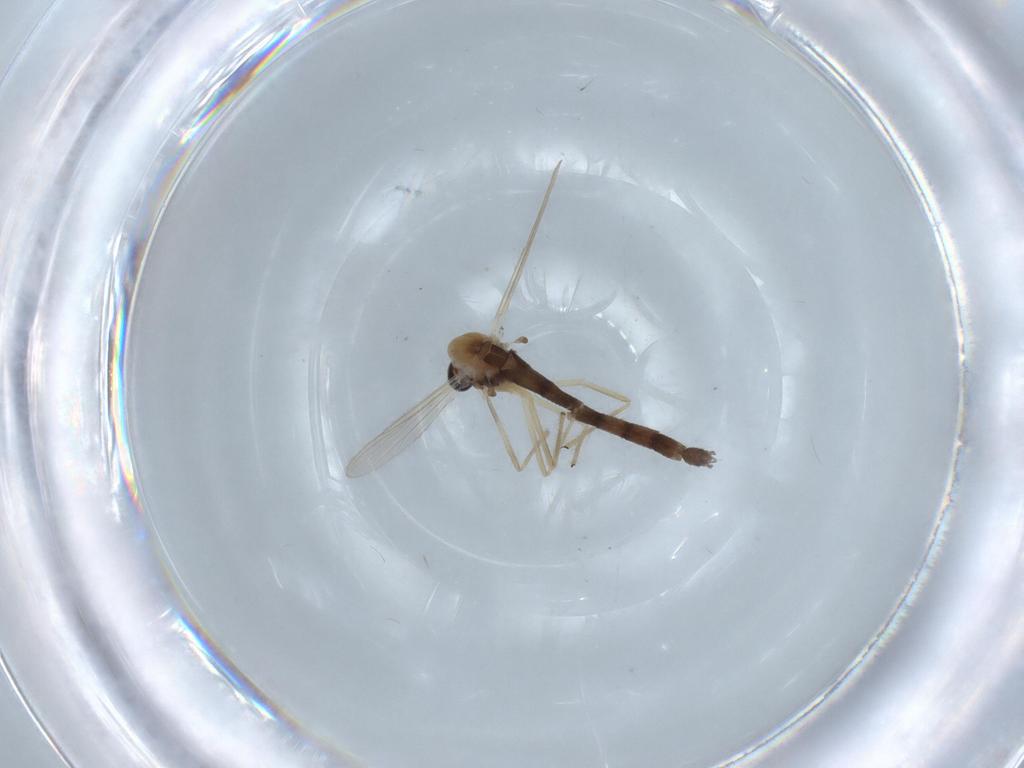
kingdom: Animalia
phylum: Arthropoda
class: Insecta
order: Diptera
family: Chironomidae
